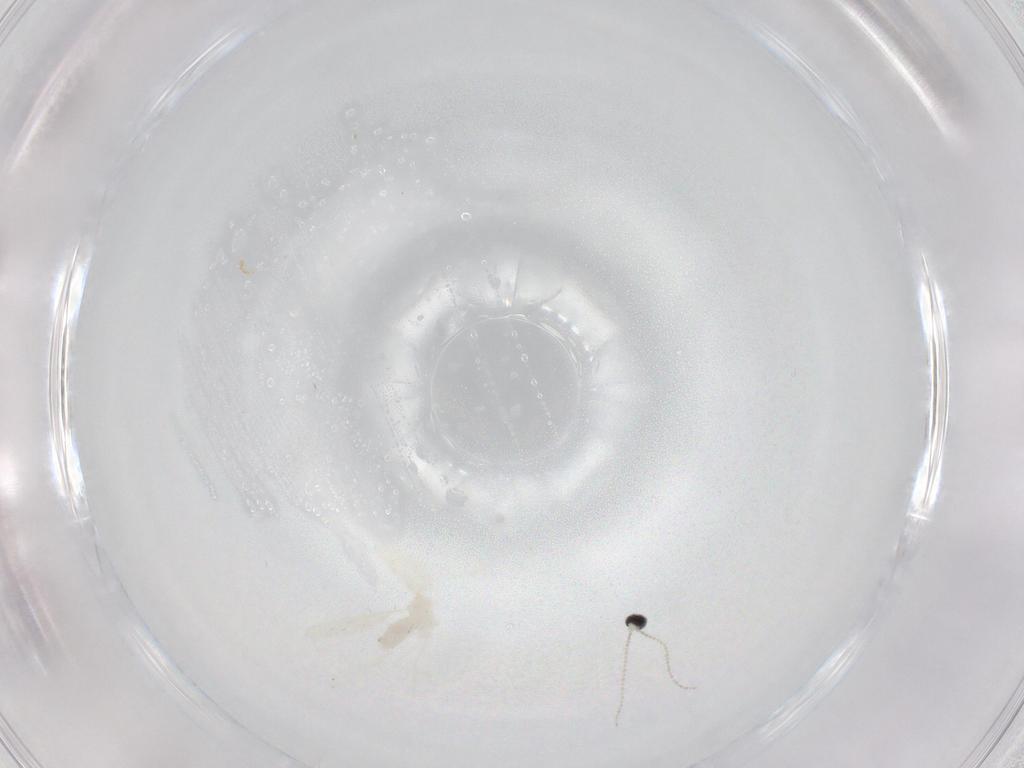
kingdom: Animalia
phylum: Arthropoda
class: Insecta
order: Diptera
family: Cecidomyiidae
